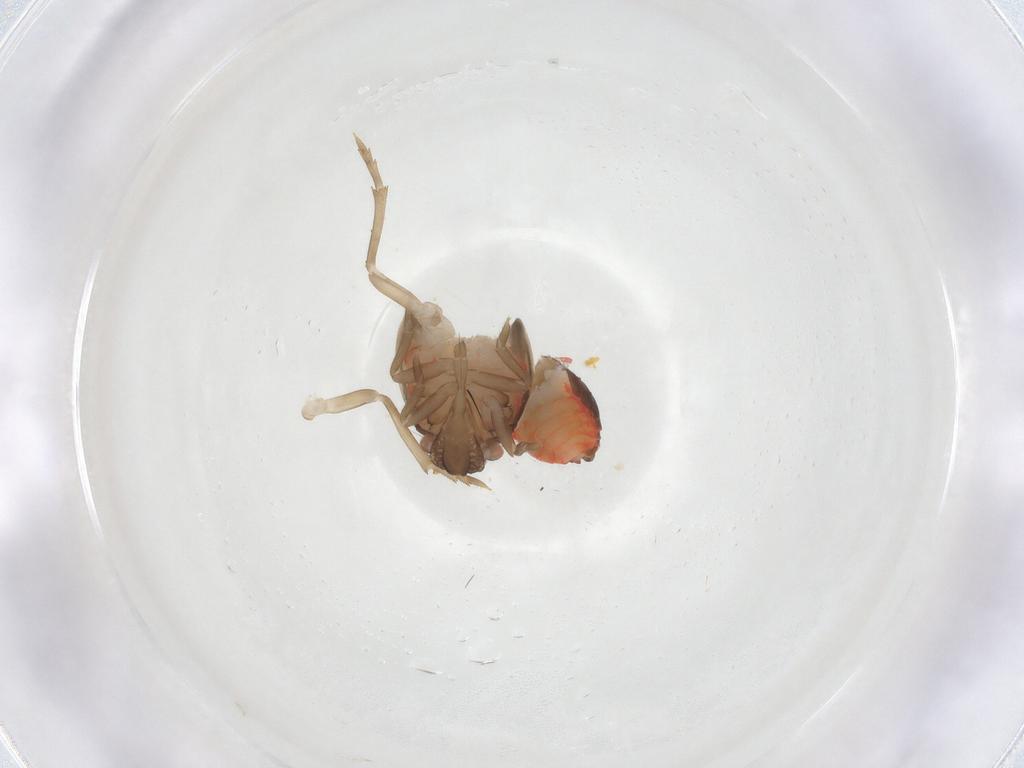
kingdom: Animalia
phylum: Arthropoda
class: Insecta
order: Hemiptera
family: Derbidae
